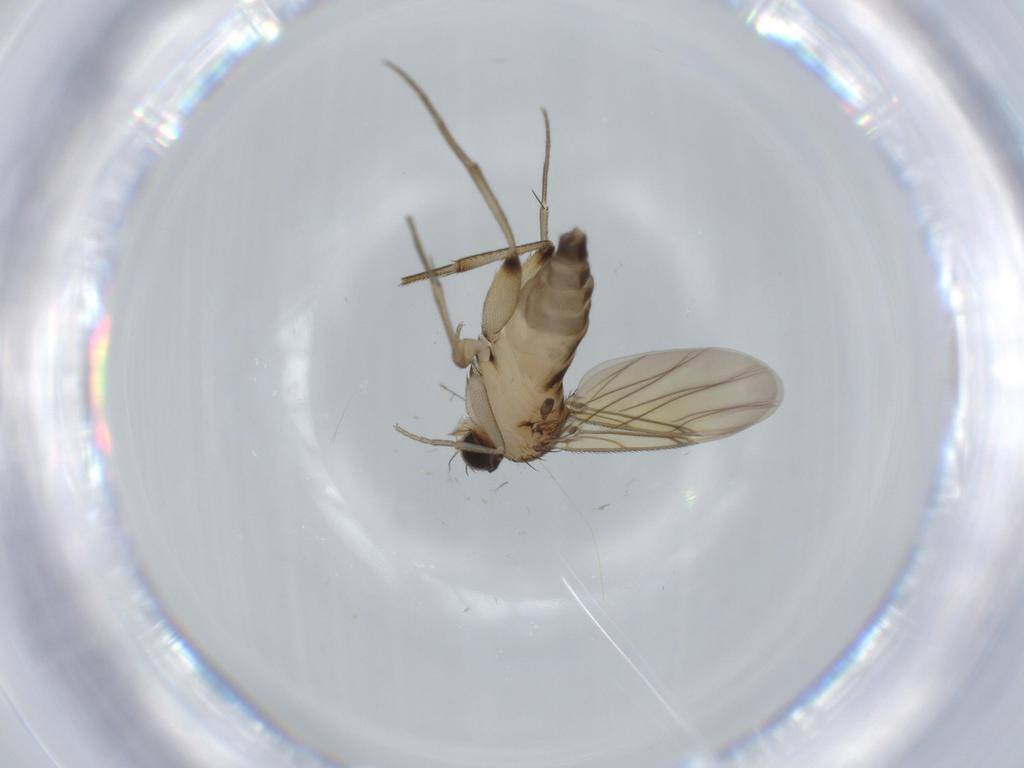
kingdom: Animalia
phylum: Arthropoda
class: Insecta
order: Diptera
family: Phoridae
